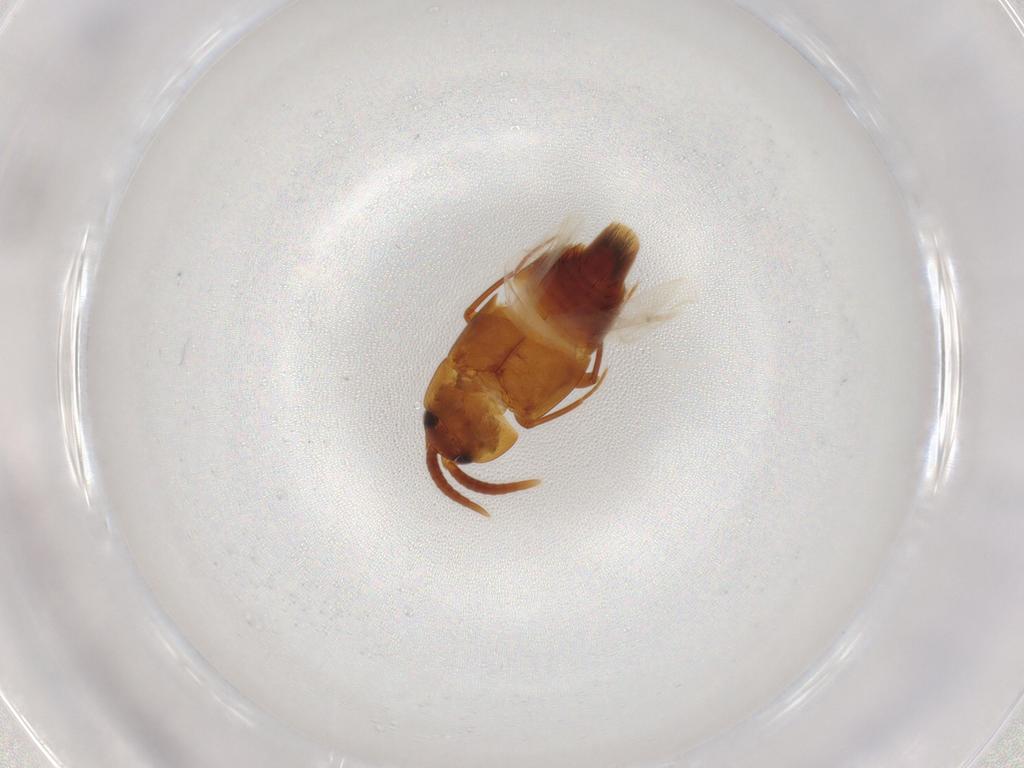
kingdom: Animalia
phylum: Arthropoda
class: Insecta
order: Coleoptera
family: Staphylinidae
